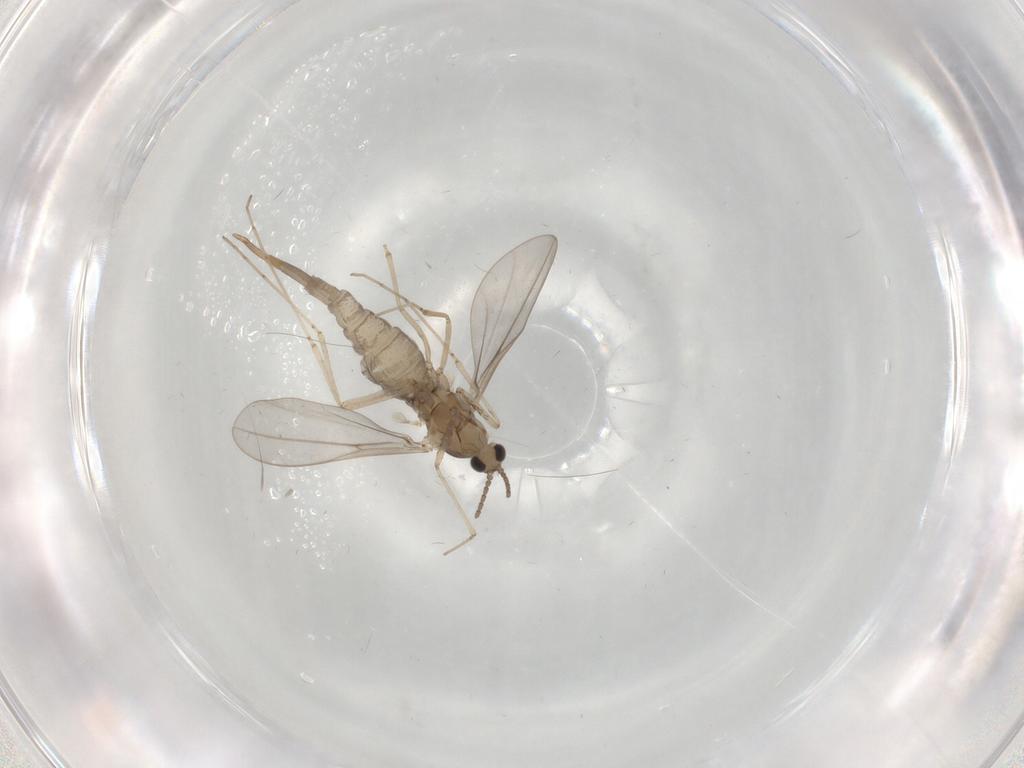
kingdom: Animalia
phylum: Arthropoda
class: Insecta
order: Diptera
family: Cecidomyiidae
